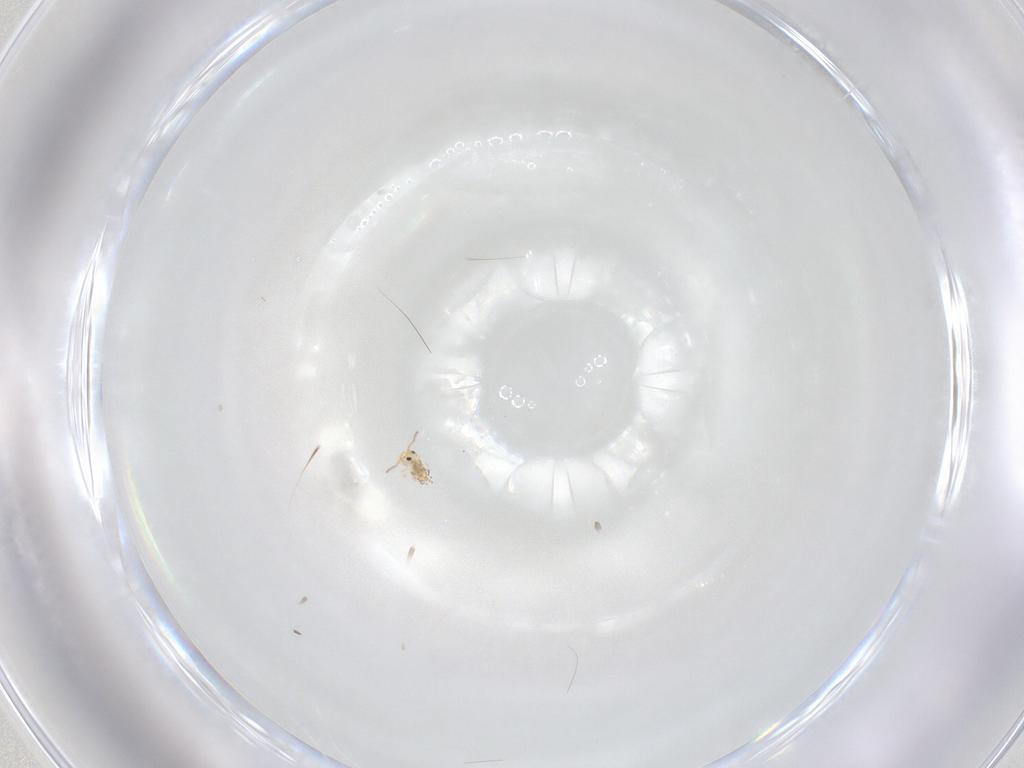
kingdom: Animalia
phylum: Arthropoda
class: Collembola
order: Symphypleona
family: Bourletiellidae
